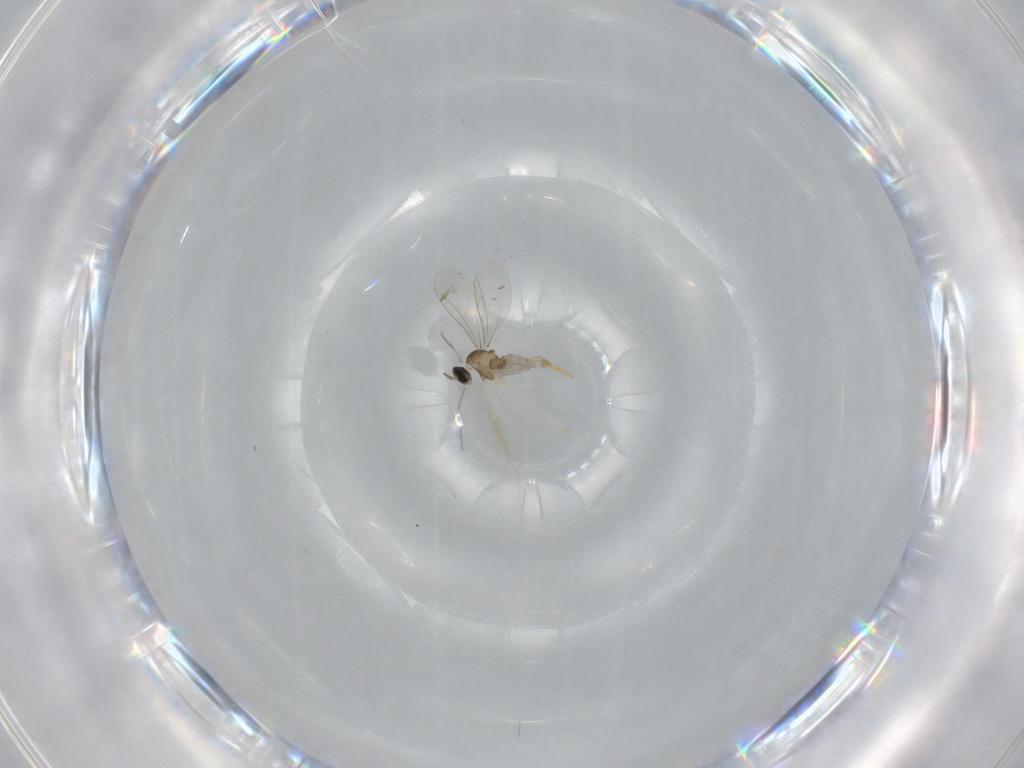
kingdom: Animalia
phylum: Arthropoda
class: Insecta
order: Diptera
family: Cecidomyiidae
